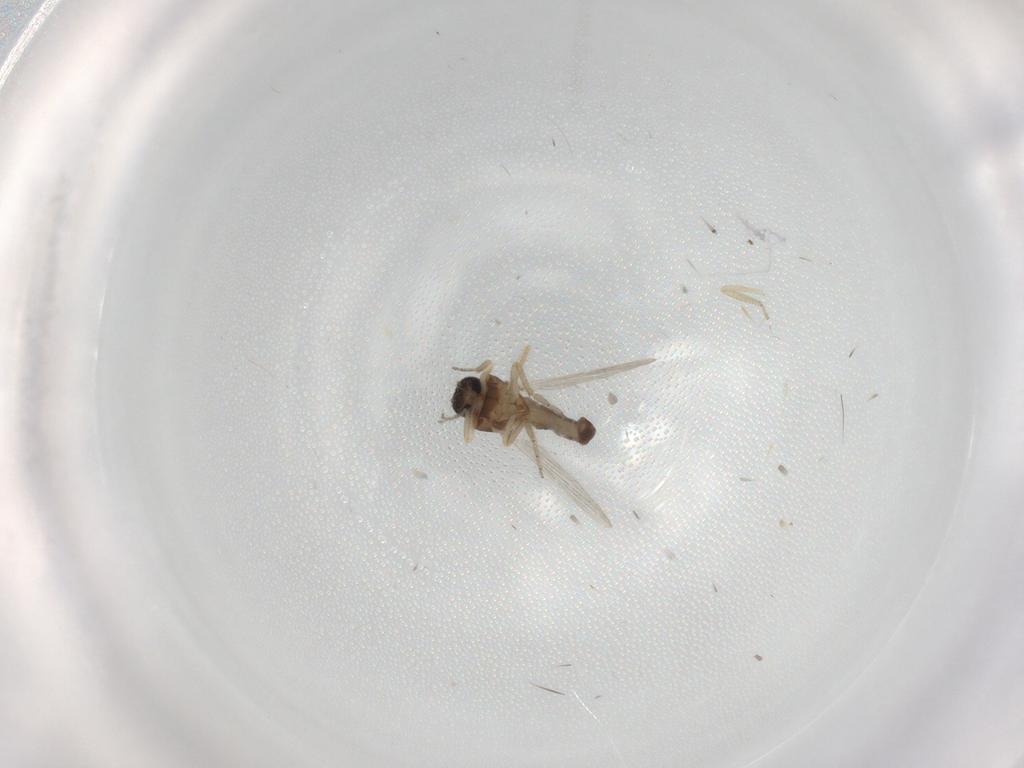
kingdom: Animalia
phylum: Arthropoda
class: Insecta
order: Diptera
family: Ceratopogonidae
